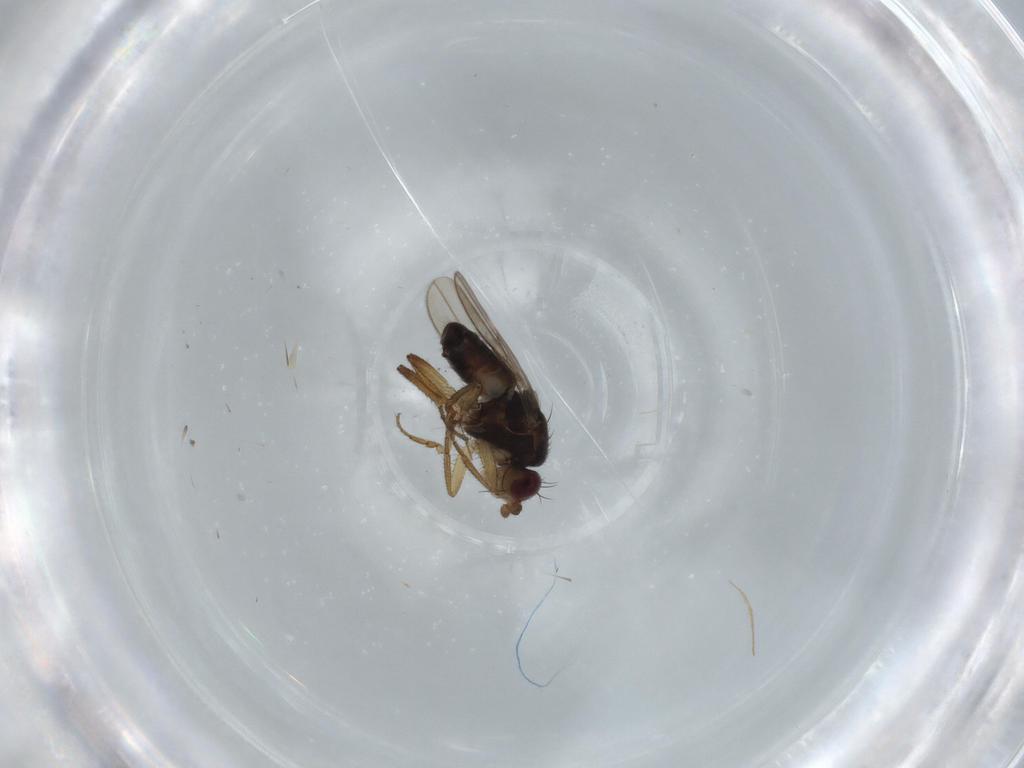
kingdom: Animalia
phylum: Arthropoda
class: Insecta
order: Diptera
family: Sphaeroceridae
